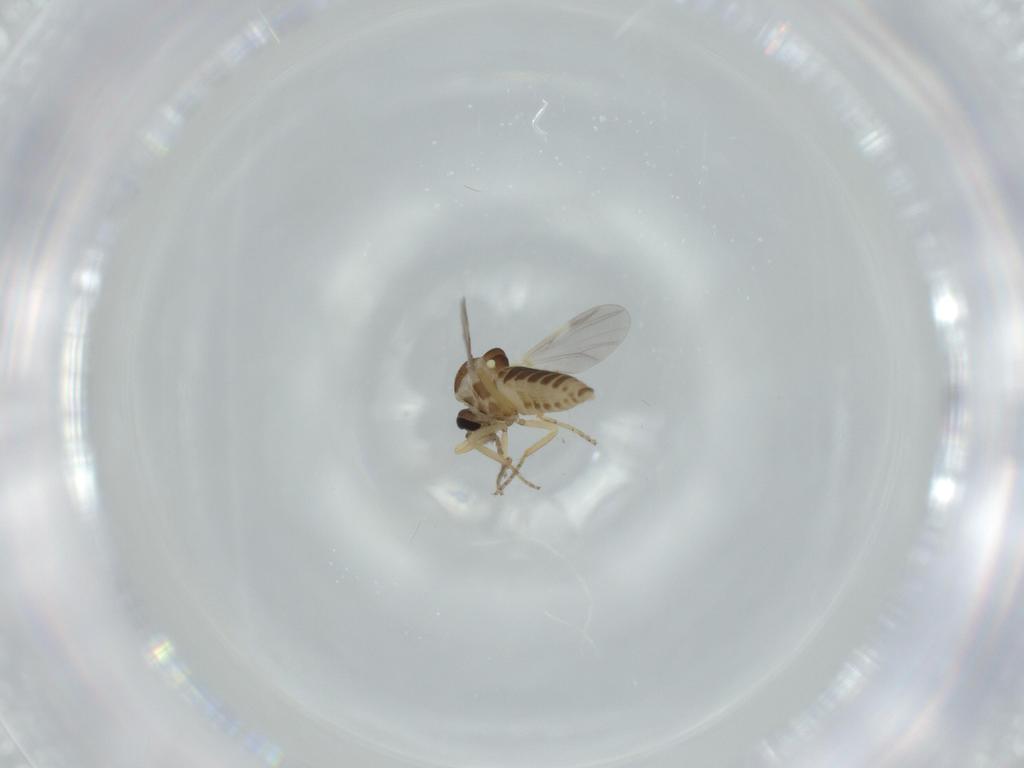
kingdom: Animalia
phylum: Arthropoda
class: Insecta
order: Diptera
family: Ceratopogonidae
